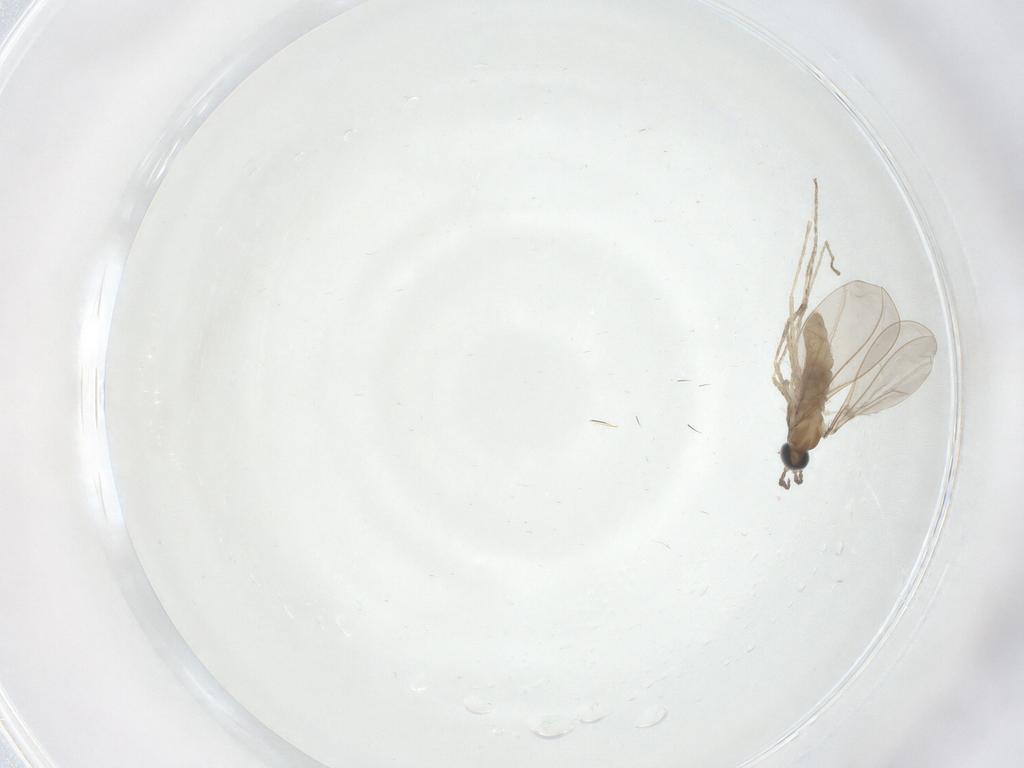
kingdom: Animalia
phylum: Arthropoda
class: Insecta
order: Diptera
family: Cecidomyiidae
